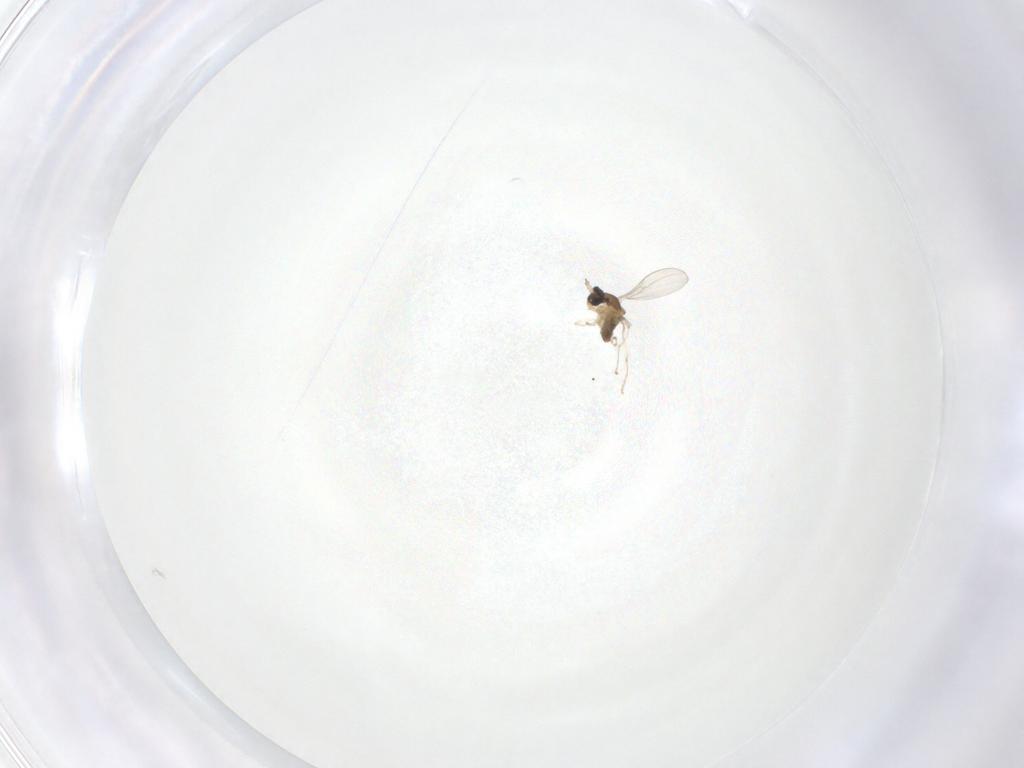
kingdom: Animalia
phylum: Arthropoda
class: Insecta
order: Diptera
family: Cecidomyiidae
